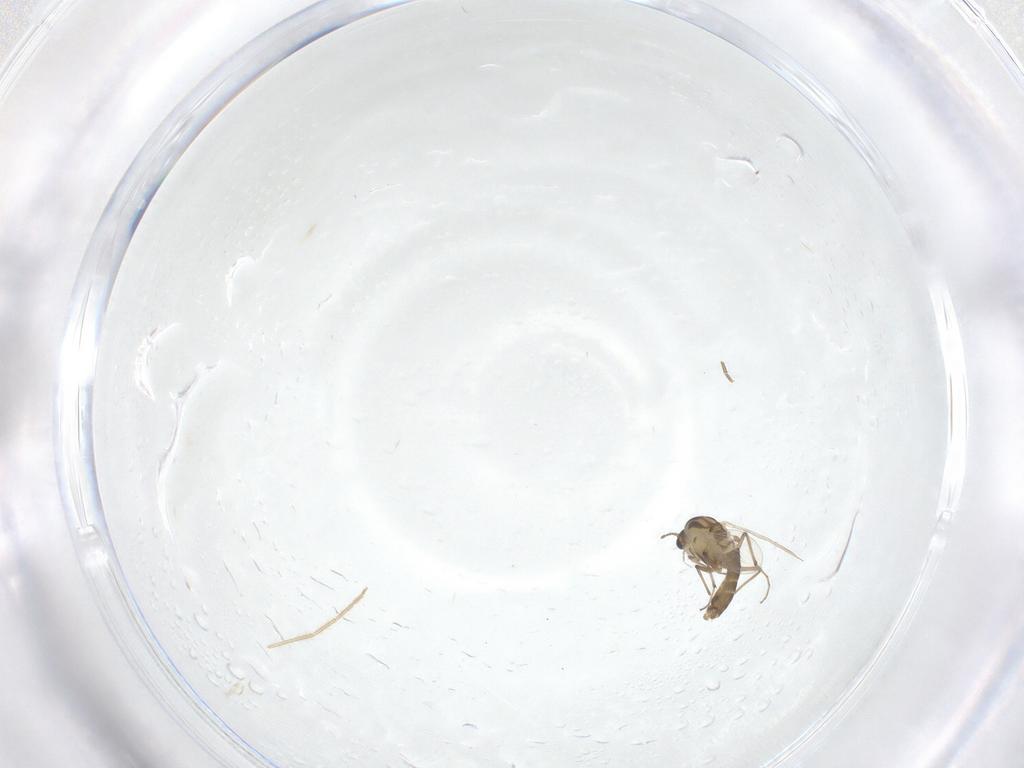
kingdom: Animalia
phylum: Arthropoda
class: Insecta
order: Diptera
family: Chironomidae
